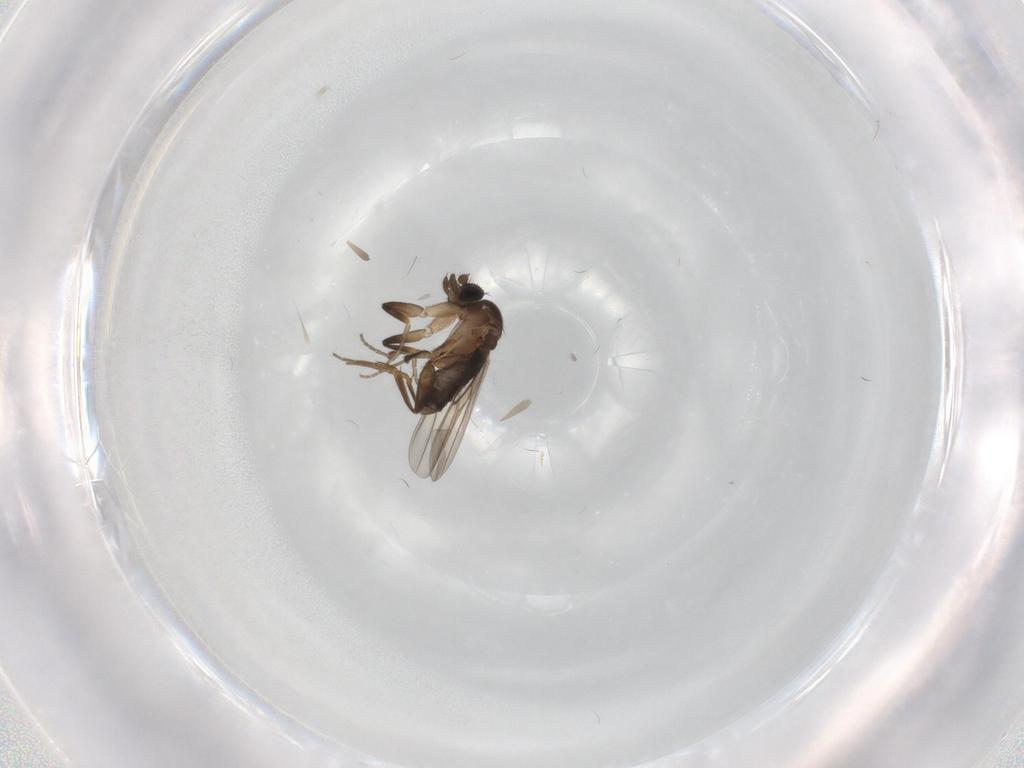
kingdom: Animalia
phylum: Arthropoda
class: Insecta
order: Diptera
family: Phoridae
